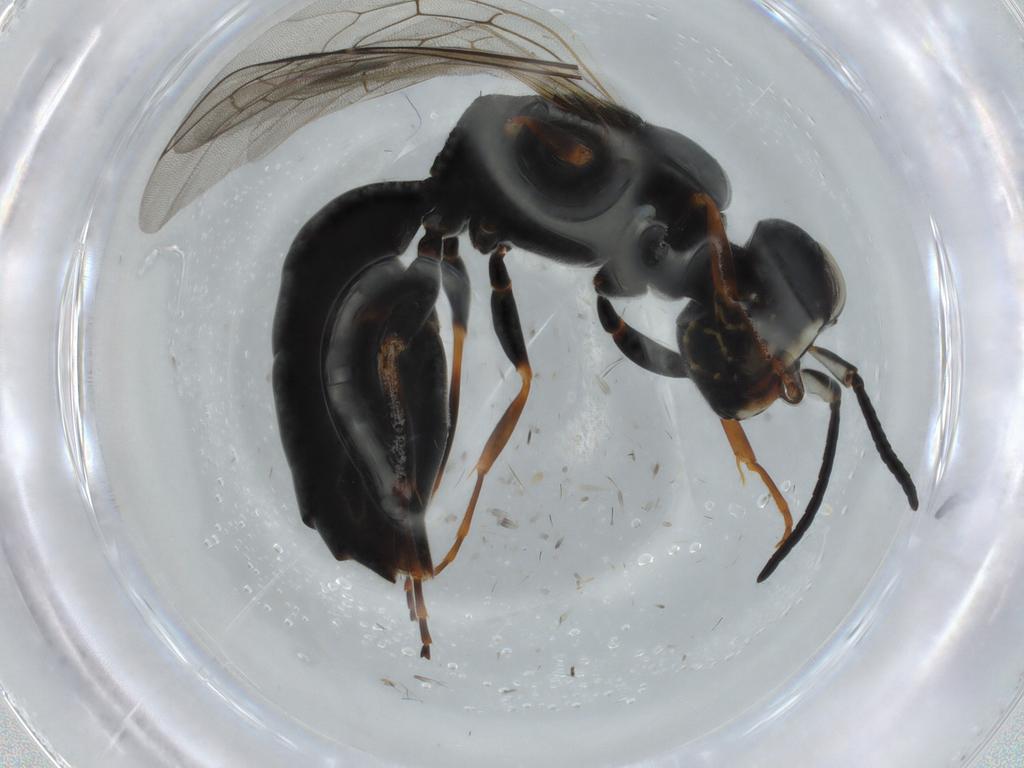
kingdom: Animalia
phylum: Arthropoda
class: Insecta
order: Hymenoptera
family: Crabronidae
